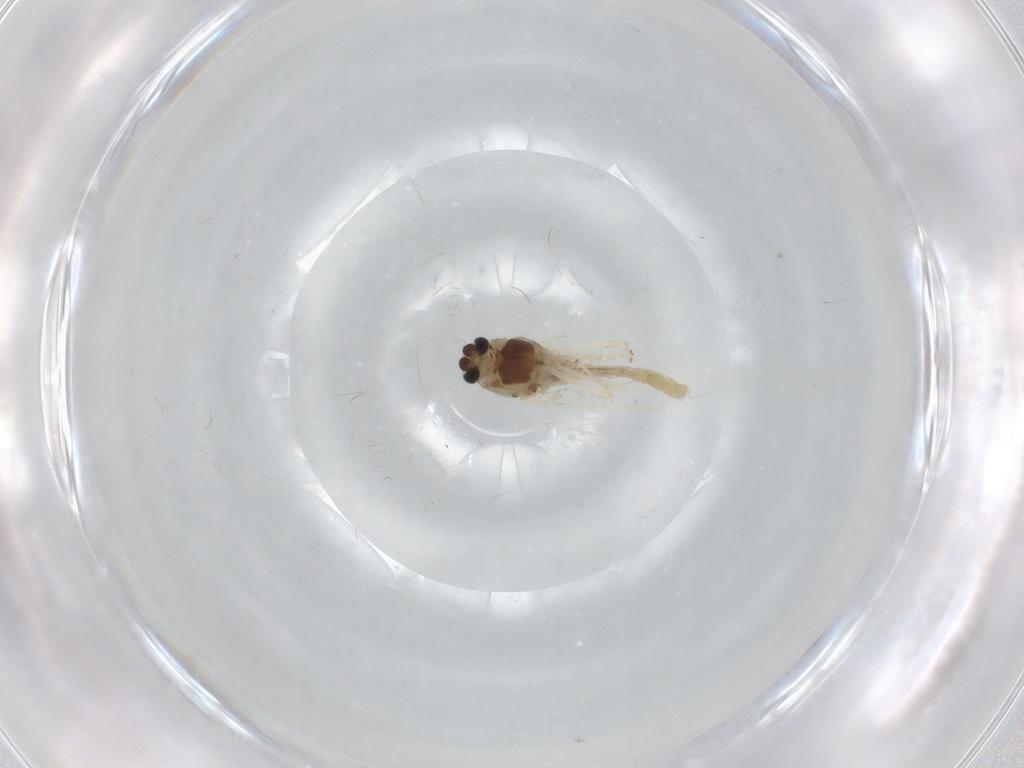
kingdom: Animalia
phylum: Arthropoda
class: Insecta
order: Diptera
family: Chironomidae
